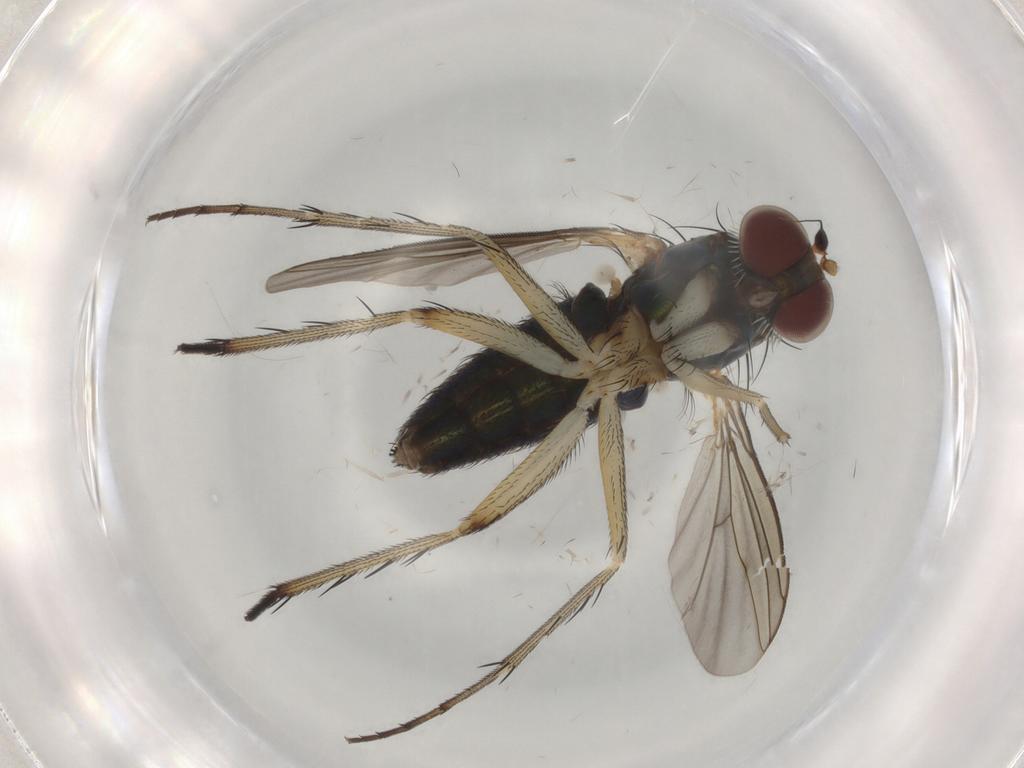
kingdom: Animalia
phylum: Arthropoda
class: Insecta
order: Diptera
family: Dolichopodidae
